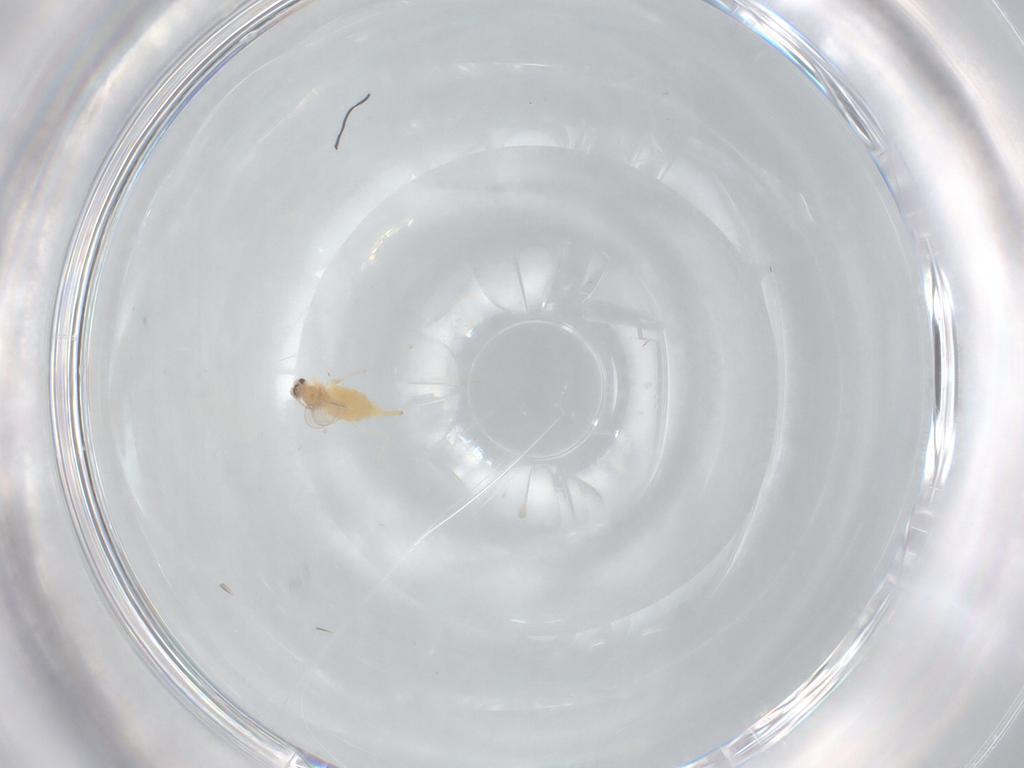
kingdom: Animalia
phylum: Arthropoda
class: Insecta
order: Diptera
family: Cecidomyiidae
